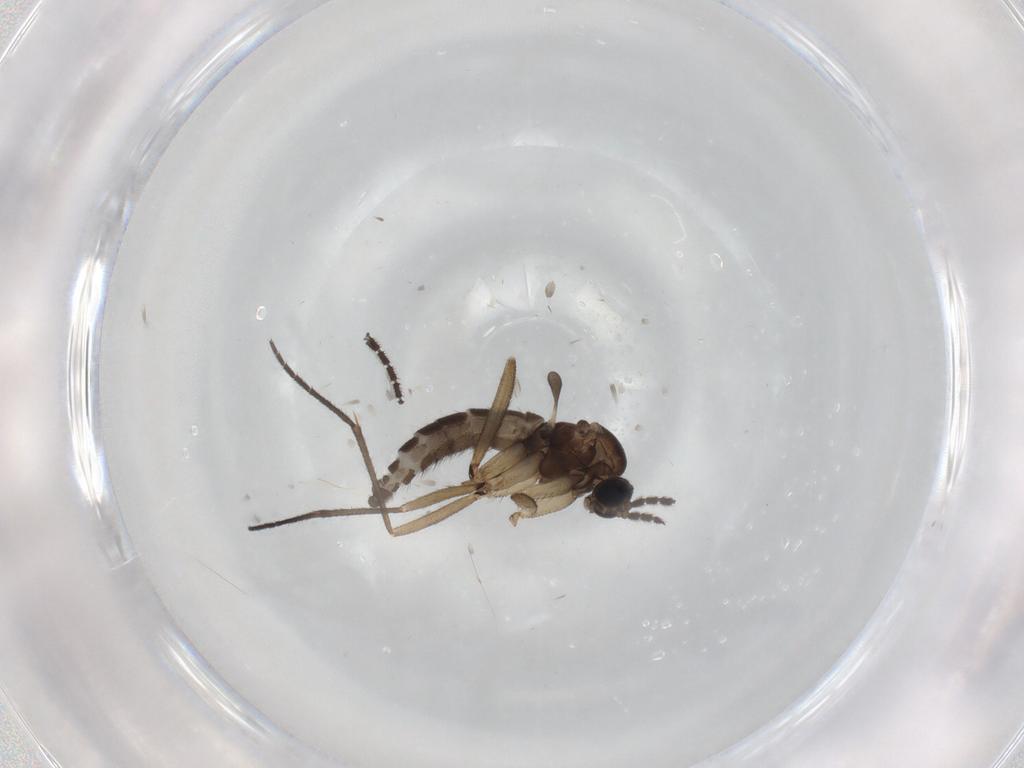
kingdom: Animalia
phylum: Arthropoda
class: Insecta
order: Diptera
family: Sciaridae
